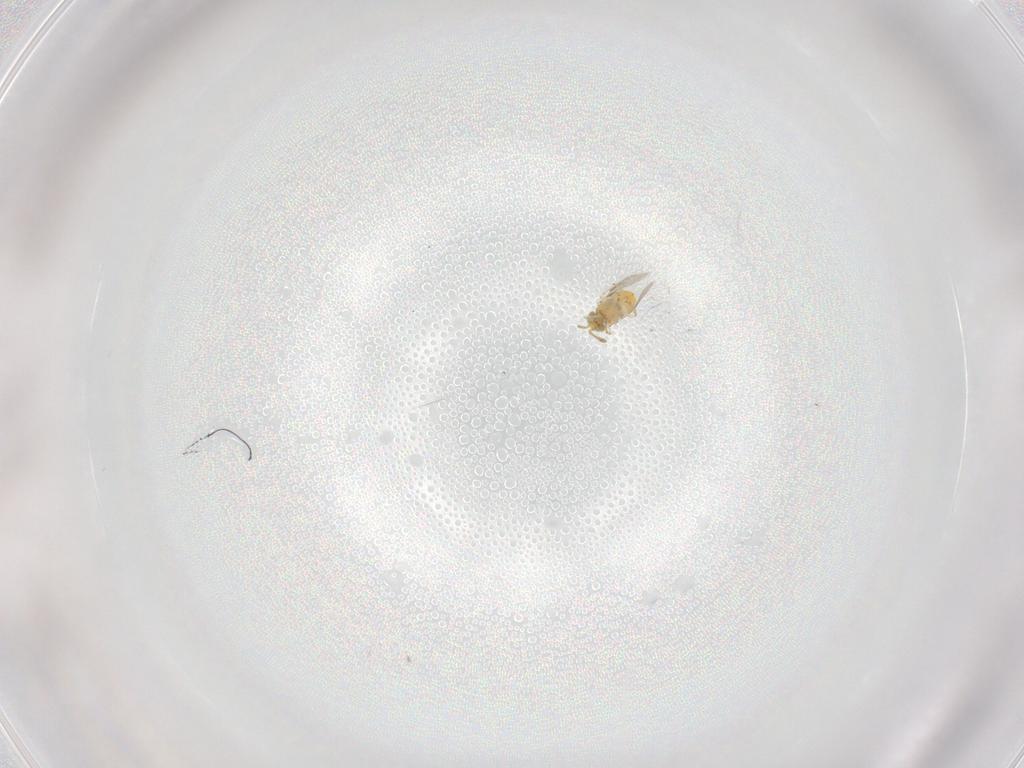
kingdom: Animalia
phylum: Arthropoda
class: Insecta
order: Hymenoptera
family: Encyrtidae
